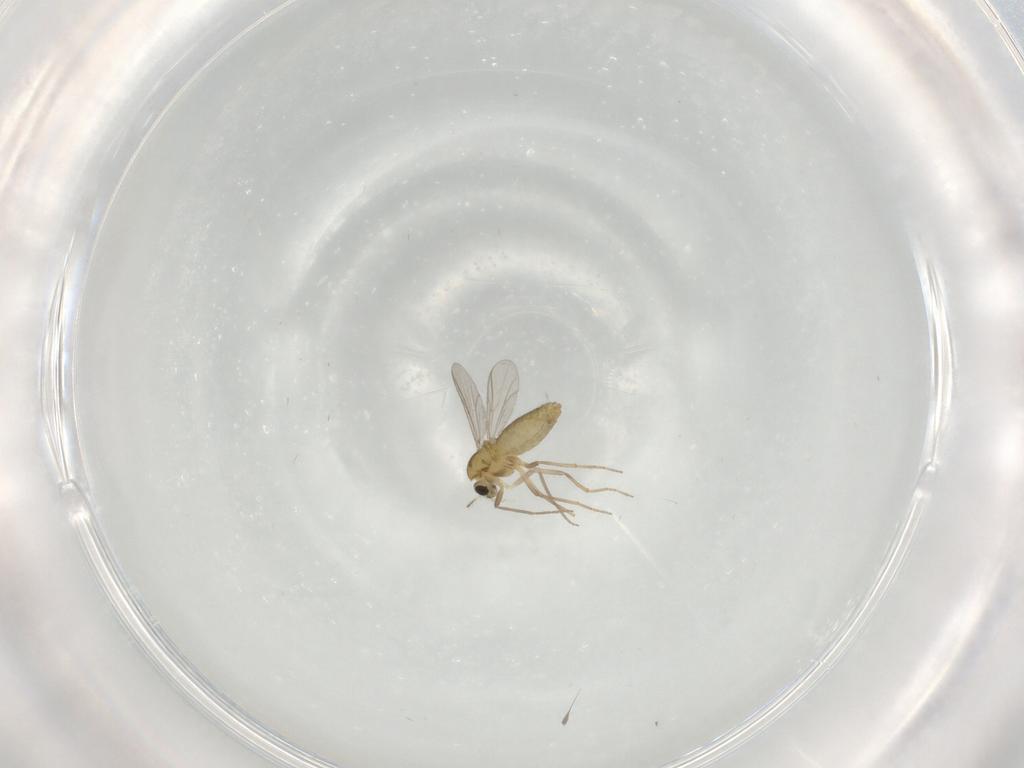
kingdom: Animalia
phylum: Arthropoda
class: Insecta
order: Diptera
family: Chironomidae
